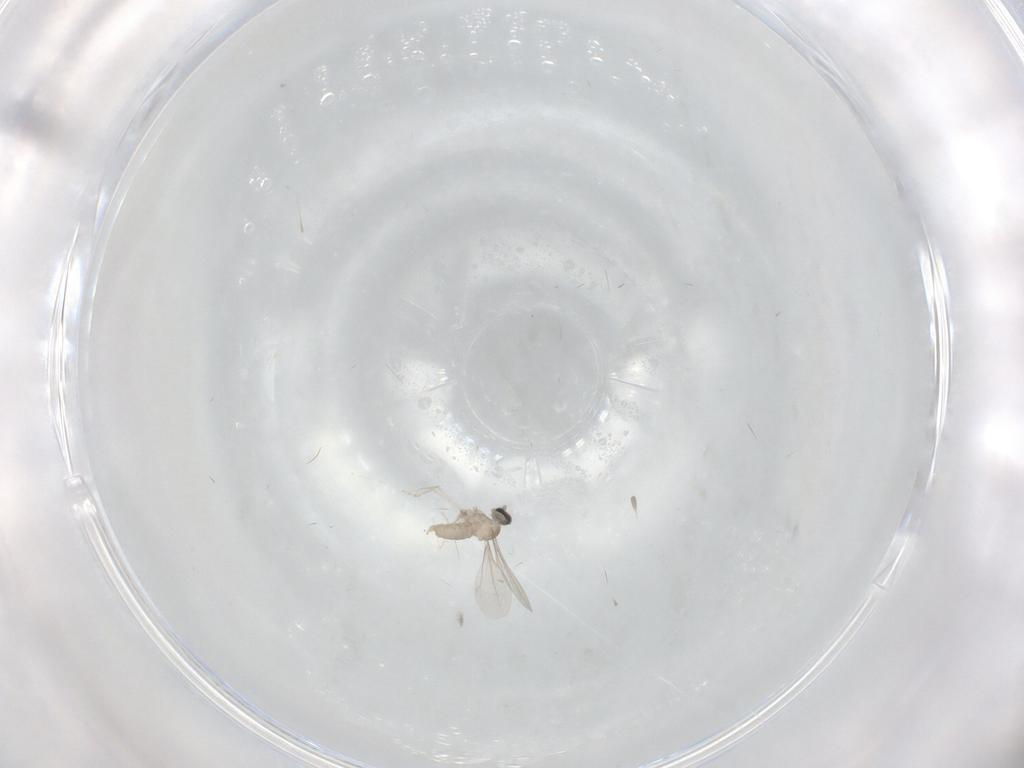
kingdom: Animalia
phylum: Arthropoda
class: Insecta
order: Diptera
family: Cecidomyiidae
